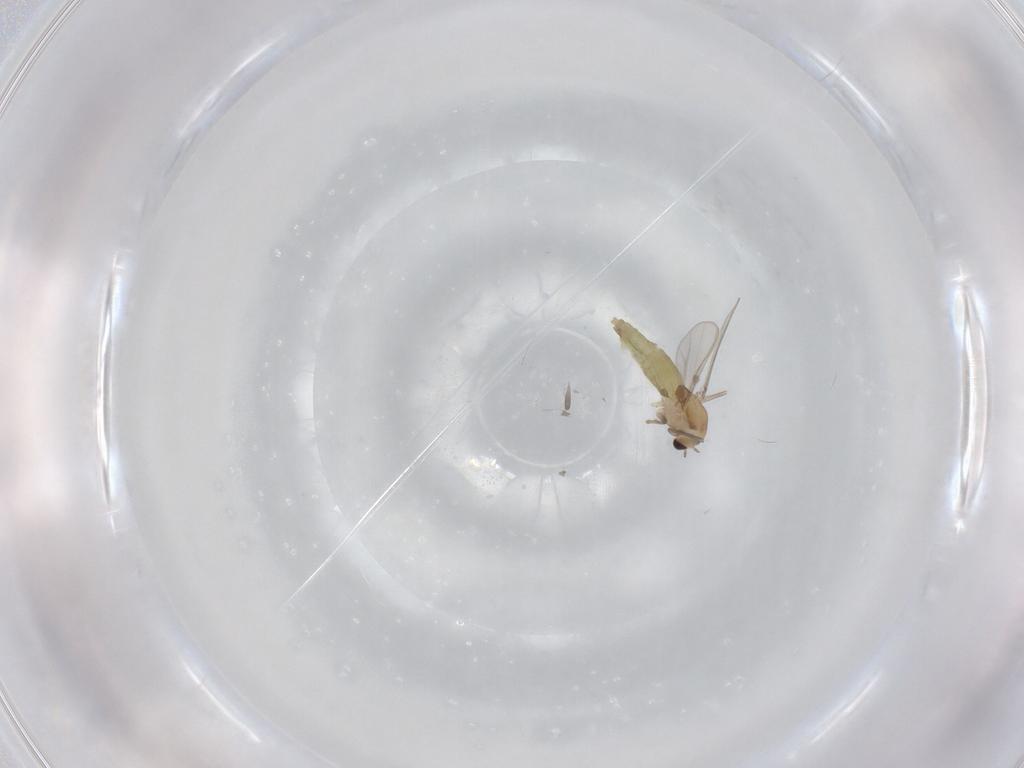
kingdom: Animalia
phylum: Arthropoda
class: Insecta
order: Diptera
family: Chironomidae
